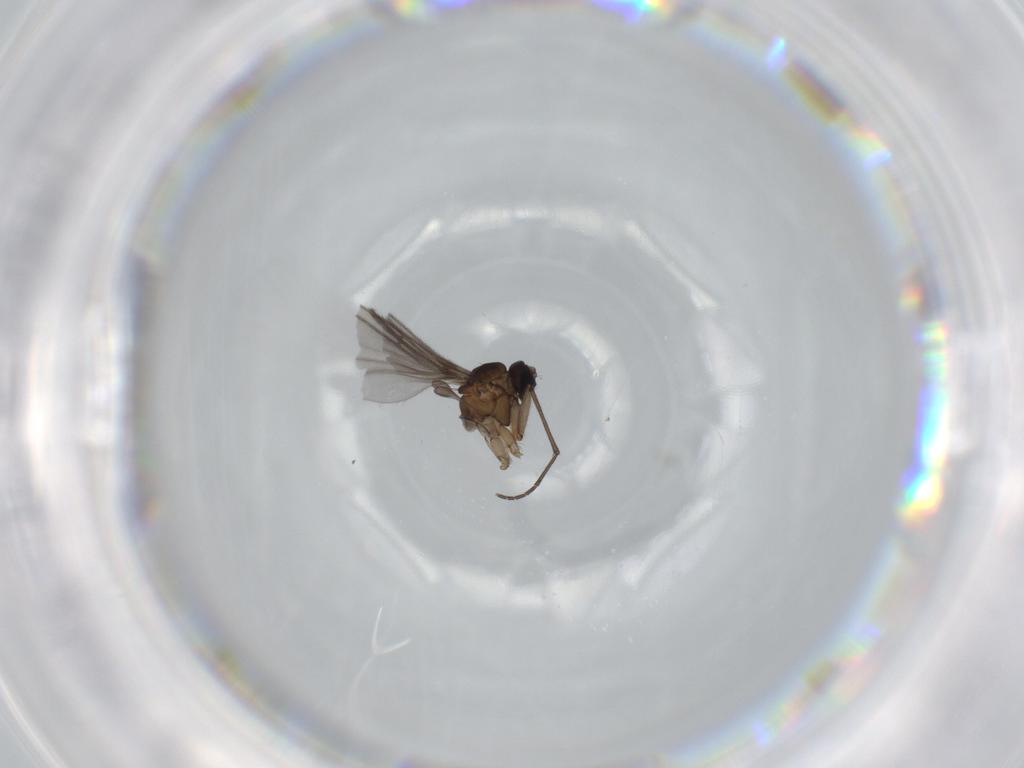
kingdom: Animalia
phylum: Arthropoda
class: Insecta
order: Diptera
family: Sciaridae
